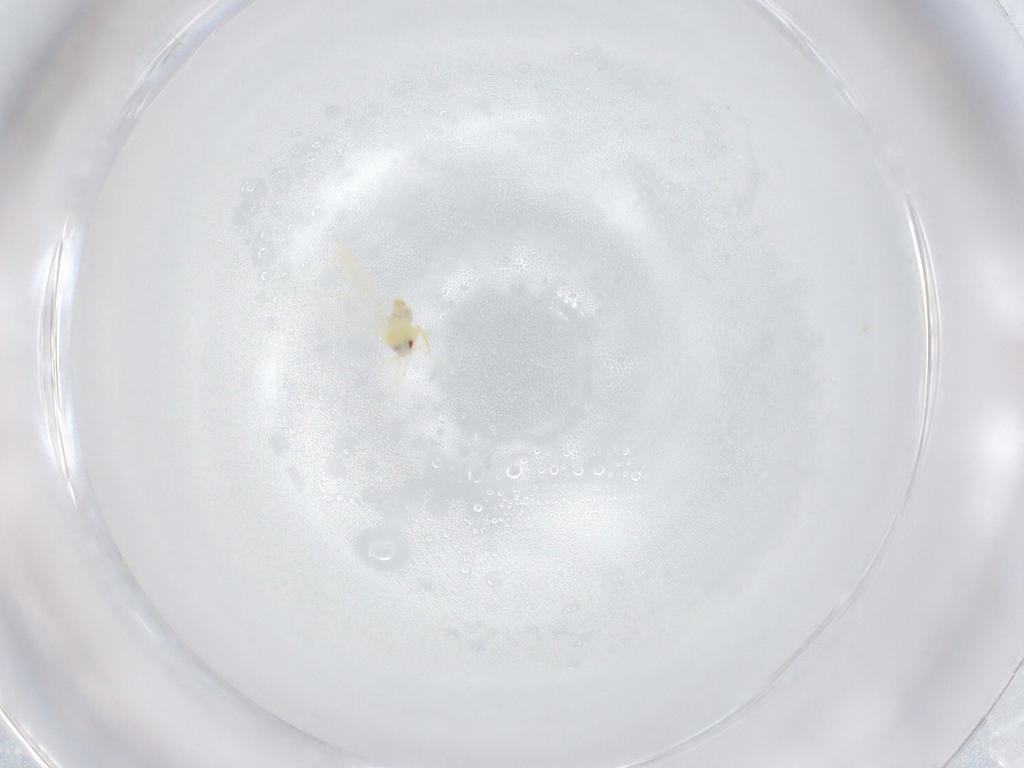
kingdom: Animalia
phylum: Arthropoda
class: Insecta
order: Hemiptera
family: Aleyrodidae
